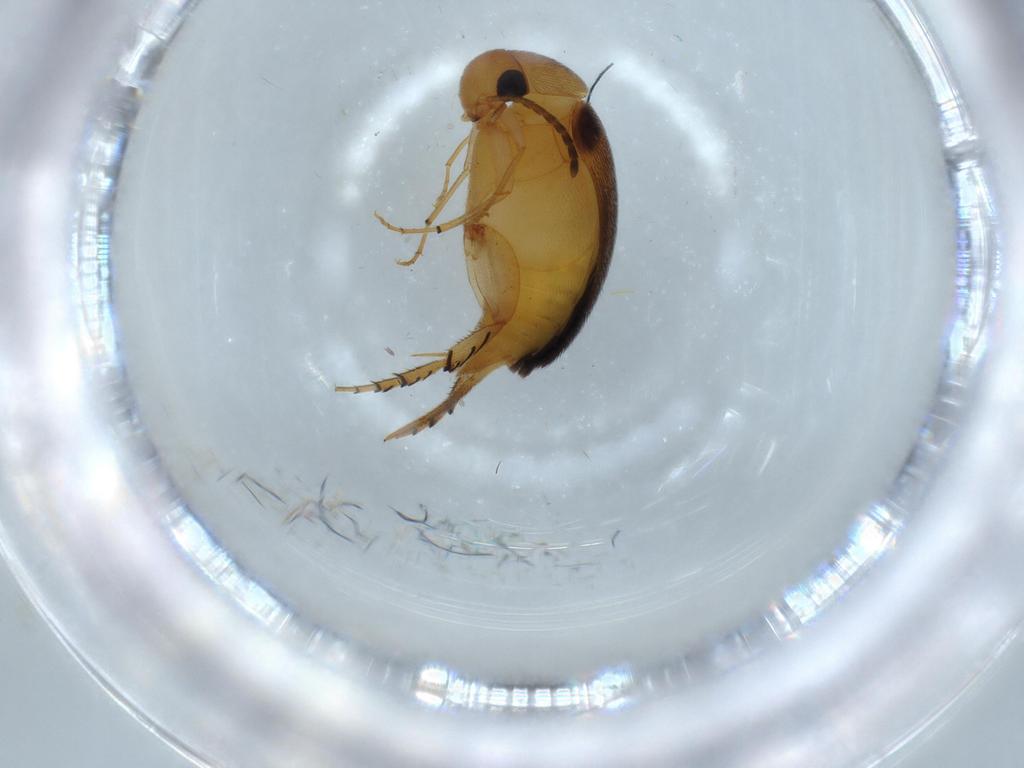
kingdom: Animalia
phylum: Arthropoda
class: Insecta
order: Coleoptera
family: Mordellidae
